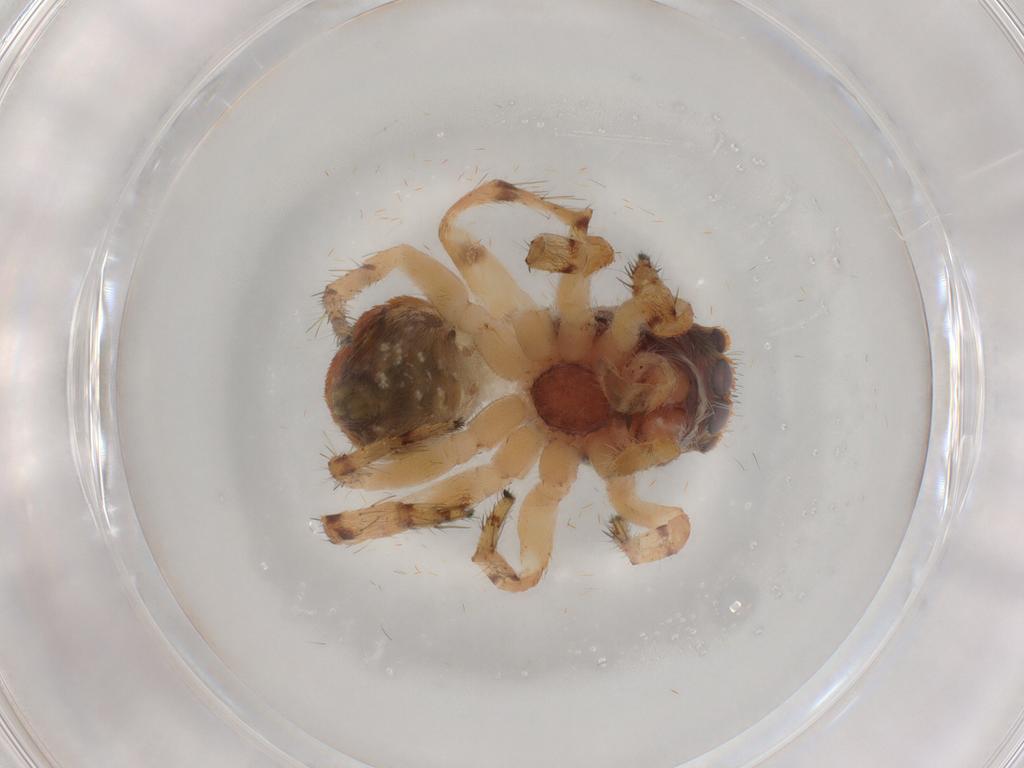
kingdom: Animalia
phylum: Arthropoda
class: Arachnida
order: Araneae
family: Salticidae
